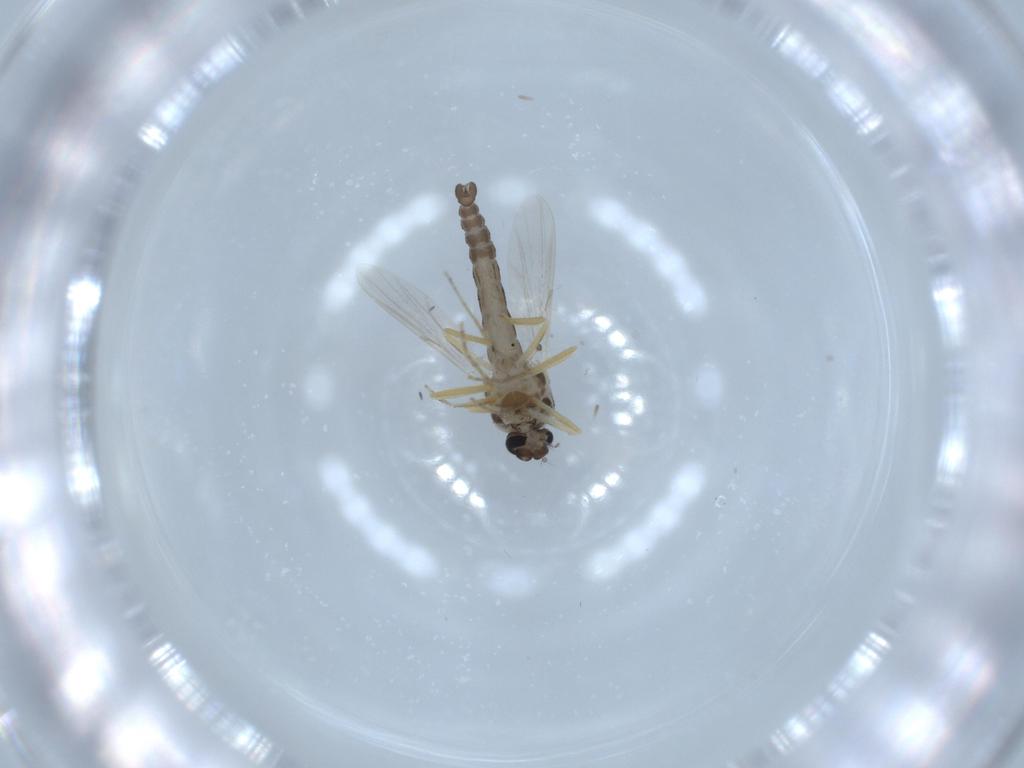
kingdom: Animalia
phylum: Arthropoda
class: Insecta
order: Diptera
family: Ceratopogonidae
